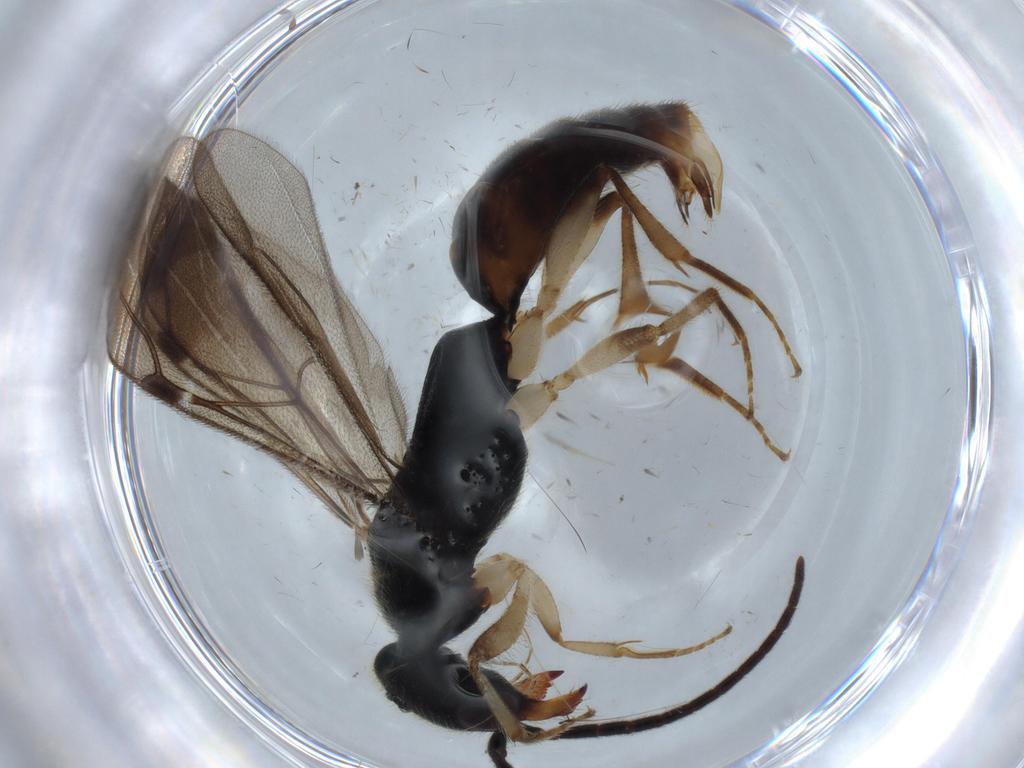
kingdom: Animalia
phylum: Arthropoda
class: Insecta
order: Hymenoptera
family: Bethylidae
